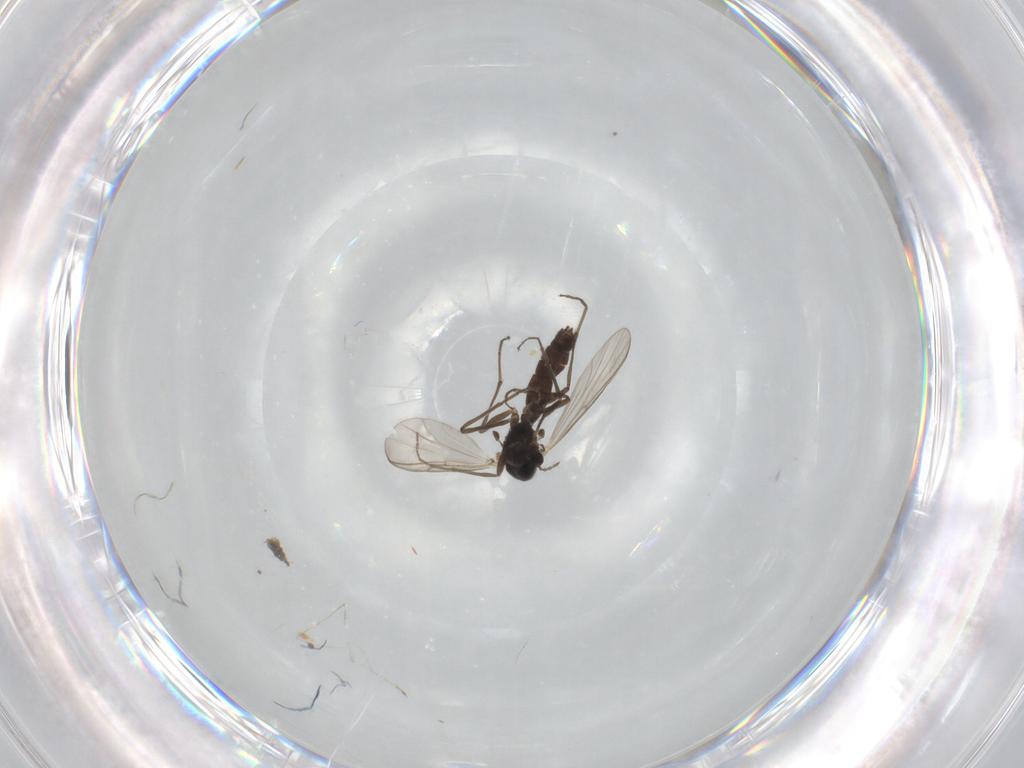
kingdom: Animalia
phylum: Arthropoda
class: Insecta
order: Diptera
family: Chironomidae
